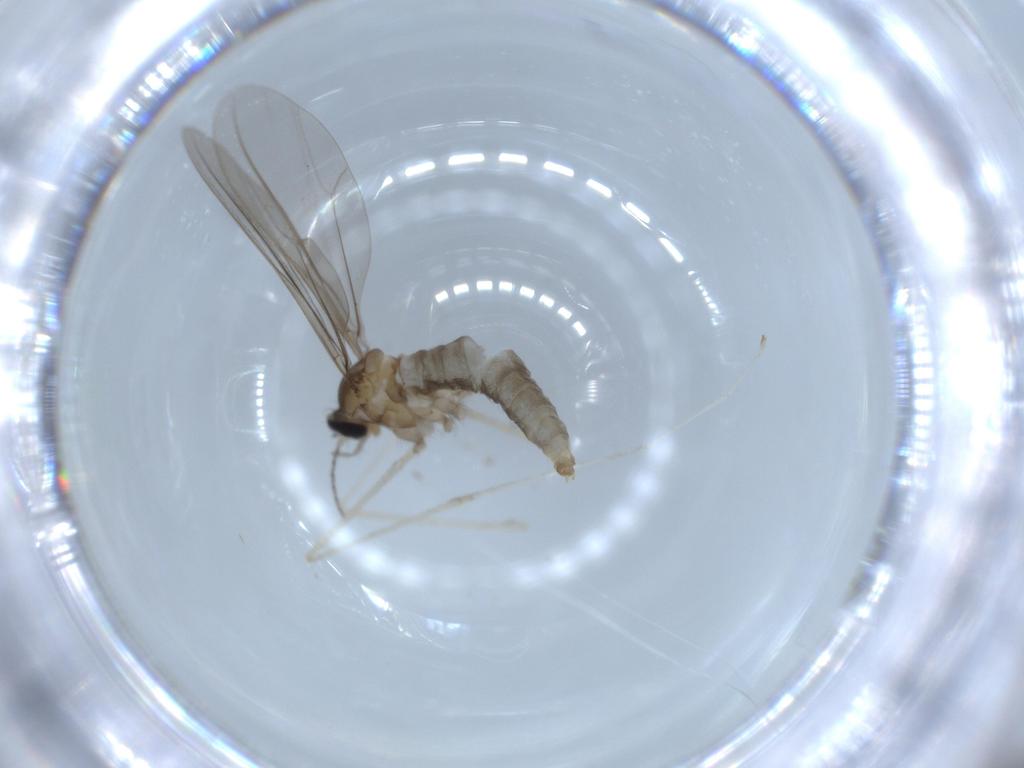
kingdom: Animalia
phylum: Arthropoda
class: Insecta
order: Diptera
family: Cecidomyiidae
